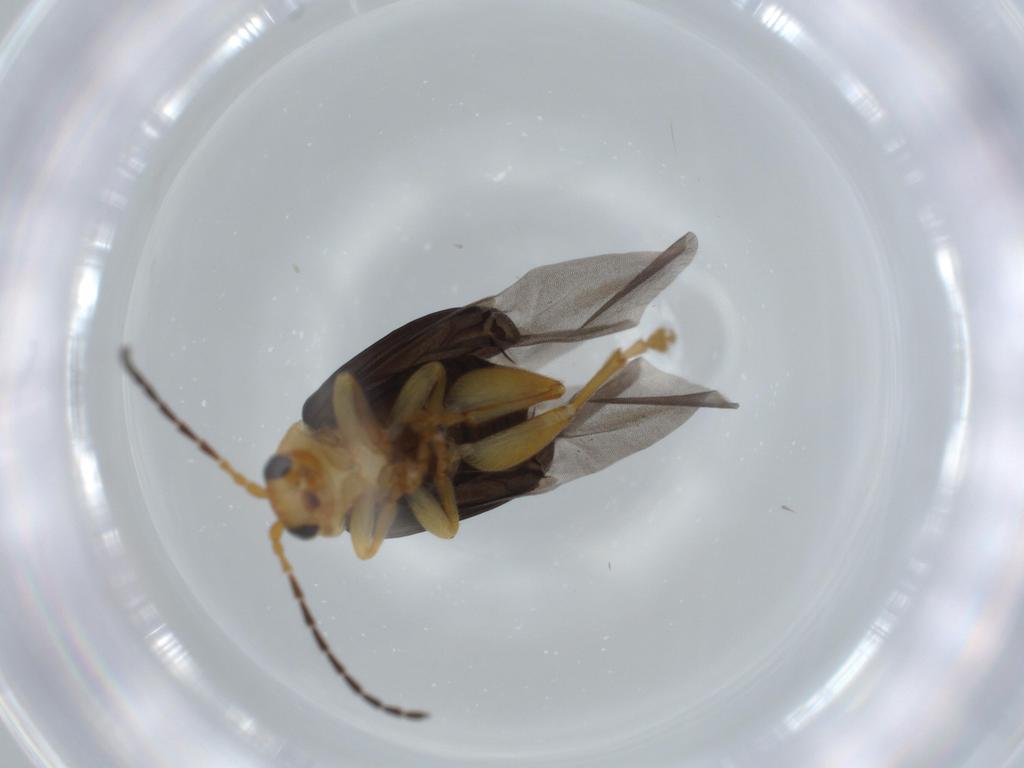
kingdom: Animalia
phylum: Arthropoda
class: Insecta
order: Coleoptera
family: Chrysomelidae
